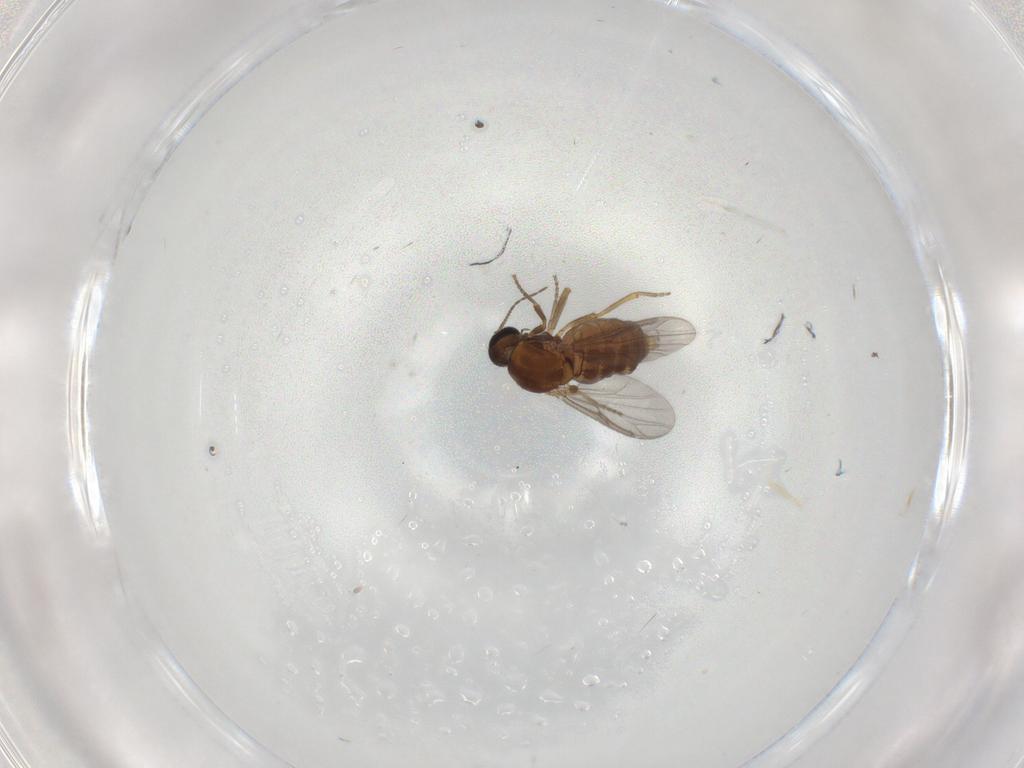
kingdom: Animalia
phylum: Arthropoda
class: Insecta
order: Diptera
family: Ceratopogonidae
